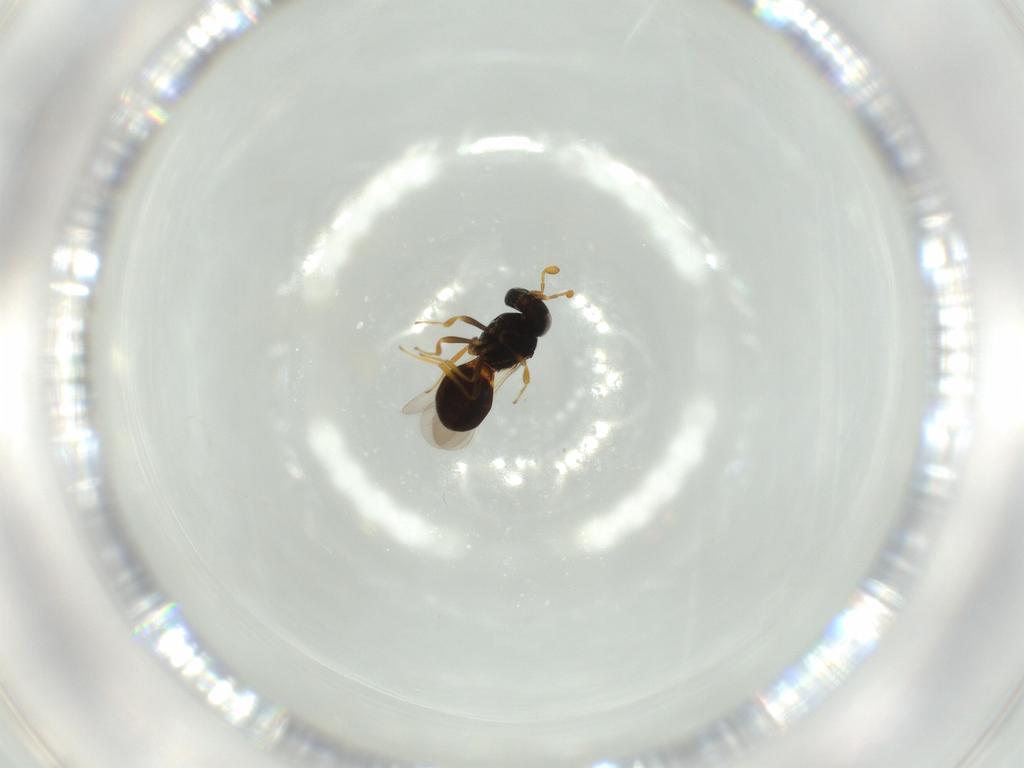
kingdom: Animalia
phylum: Arthropoda
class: Insecta
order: Hymenoptera
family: Scelionidae
